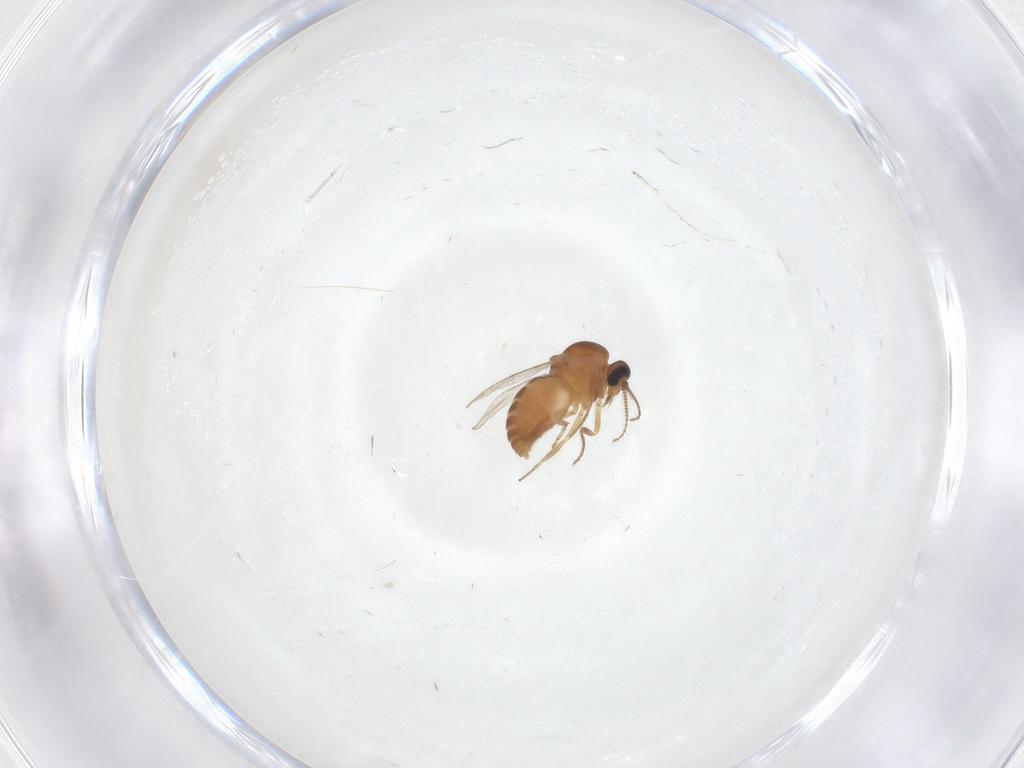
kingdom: Animalia
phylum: Arthropoda
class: Insecta
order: Diptera
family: Ceratopogonidae
